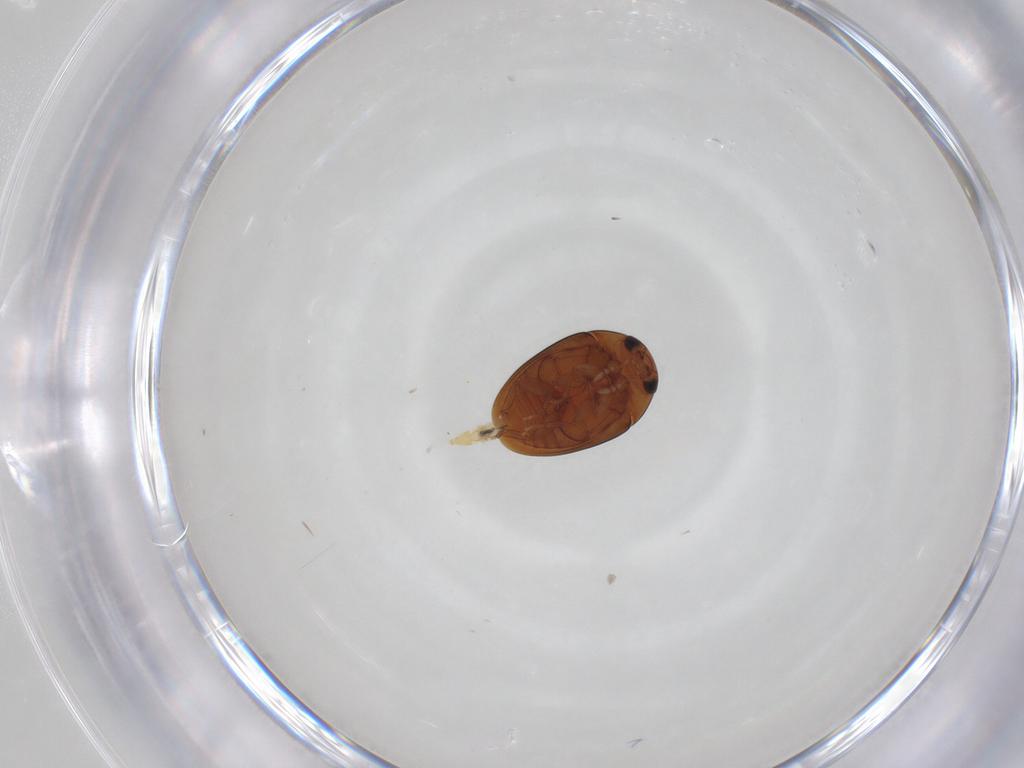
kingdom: Animalia
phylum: Arthropoda
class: Insecta
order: Coleoptera
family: Phalacridae
